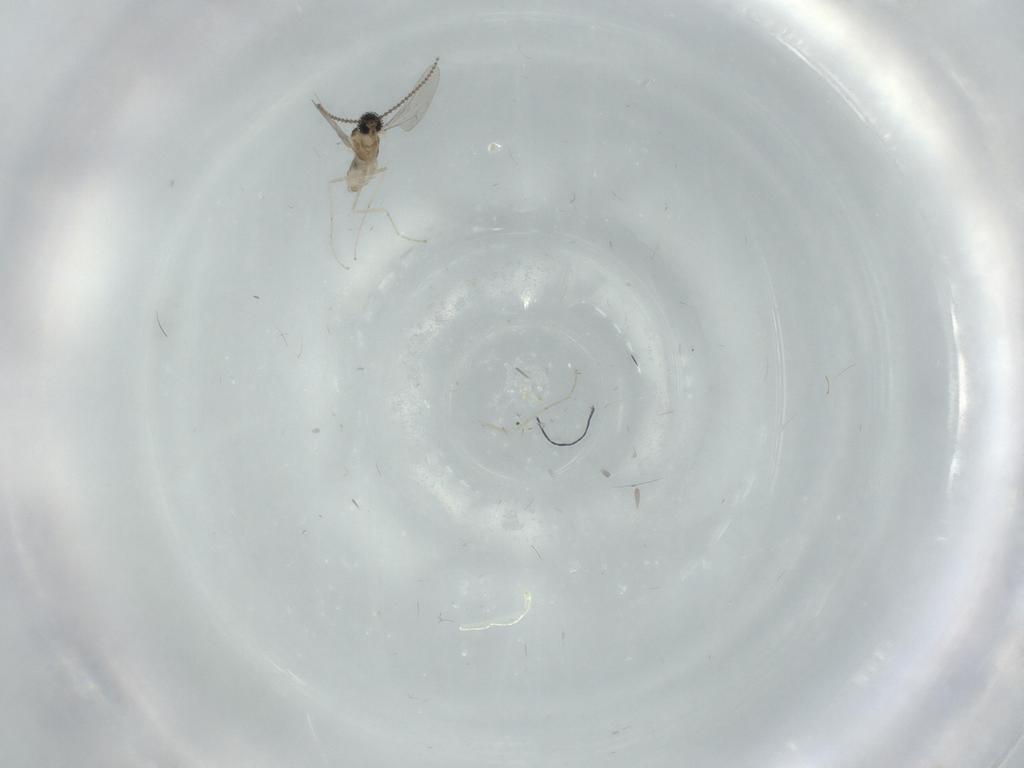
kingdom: Animalia
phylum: Arthropoda
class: Insecta
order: Diptera
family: Cecidomyiidae
